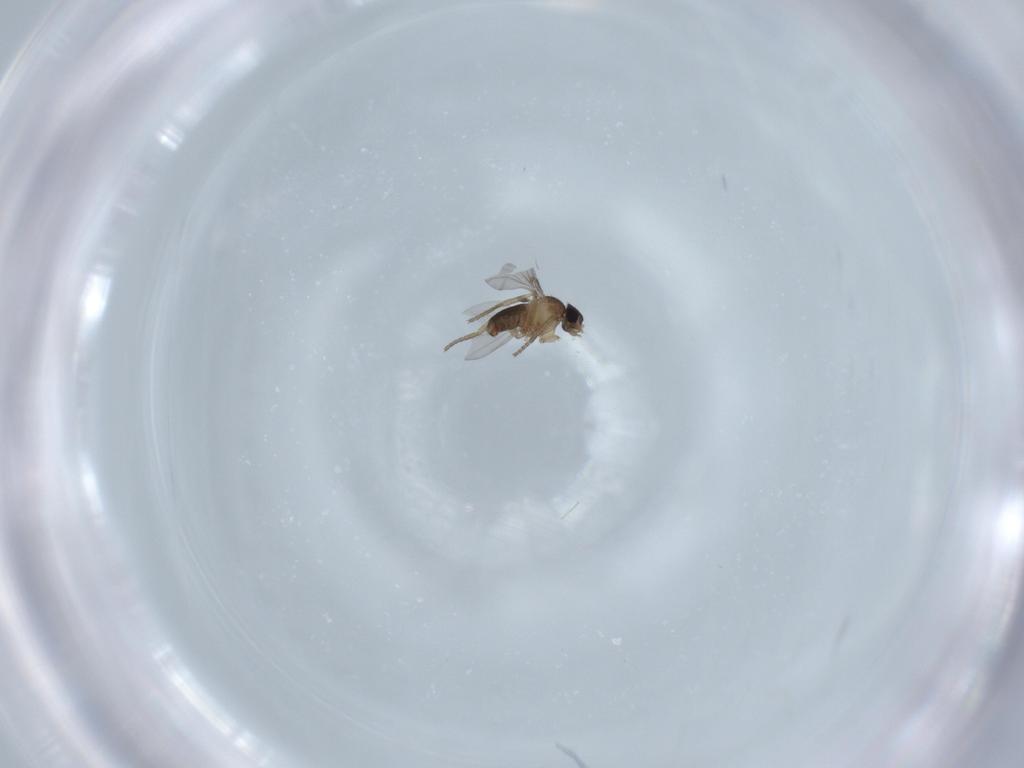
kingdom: Animalia
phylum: Arthropoda
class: Insecta
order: Diptera
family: Phoridae
